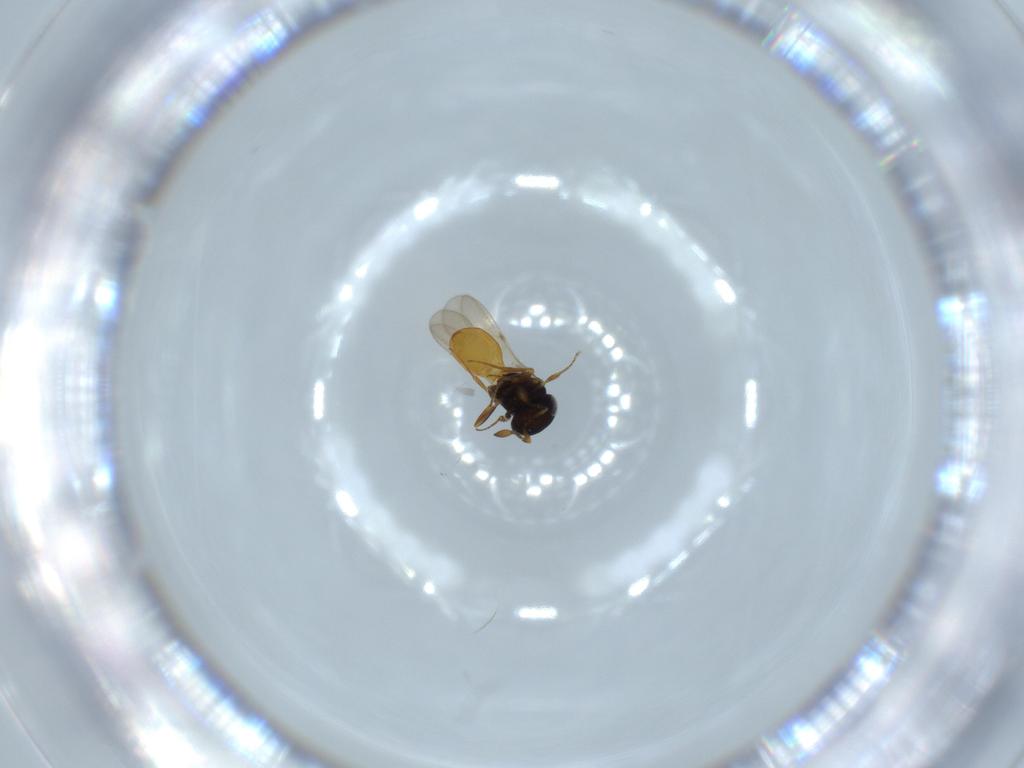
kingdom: Animalia
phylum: Arthropoda
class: Insecta
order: Hymenoptera
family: Scelionidae
